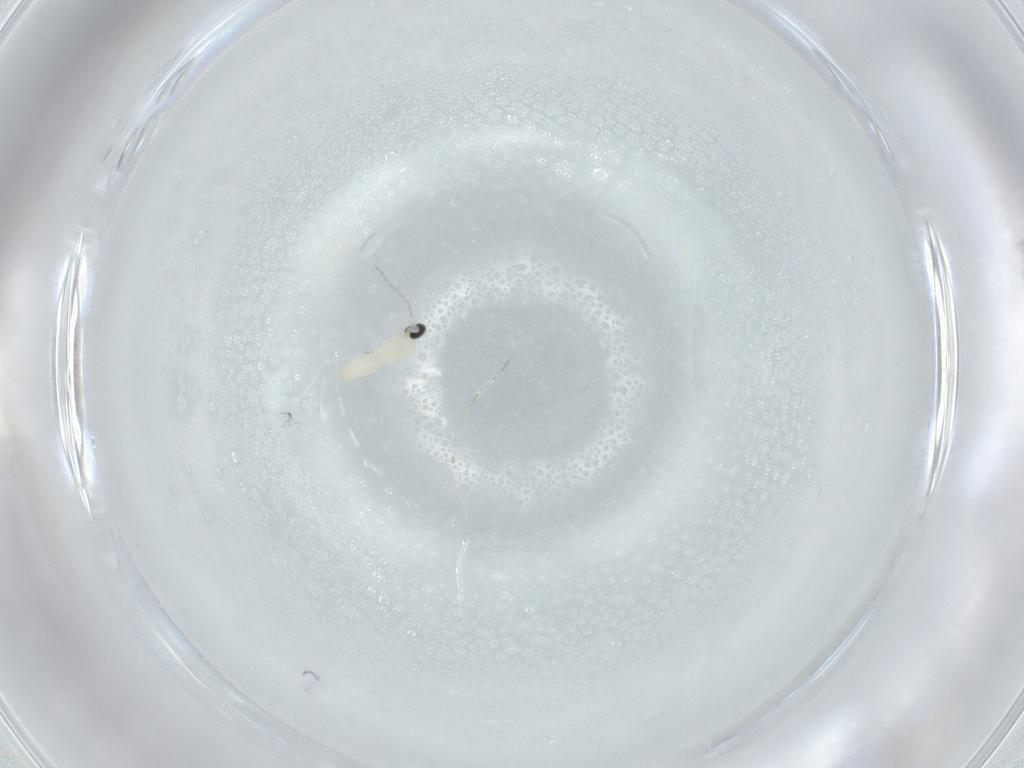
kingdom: Animalia
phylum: Arthropoda
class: Insecta
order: Diptera
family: Cecidomyiidae
